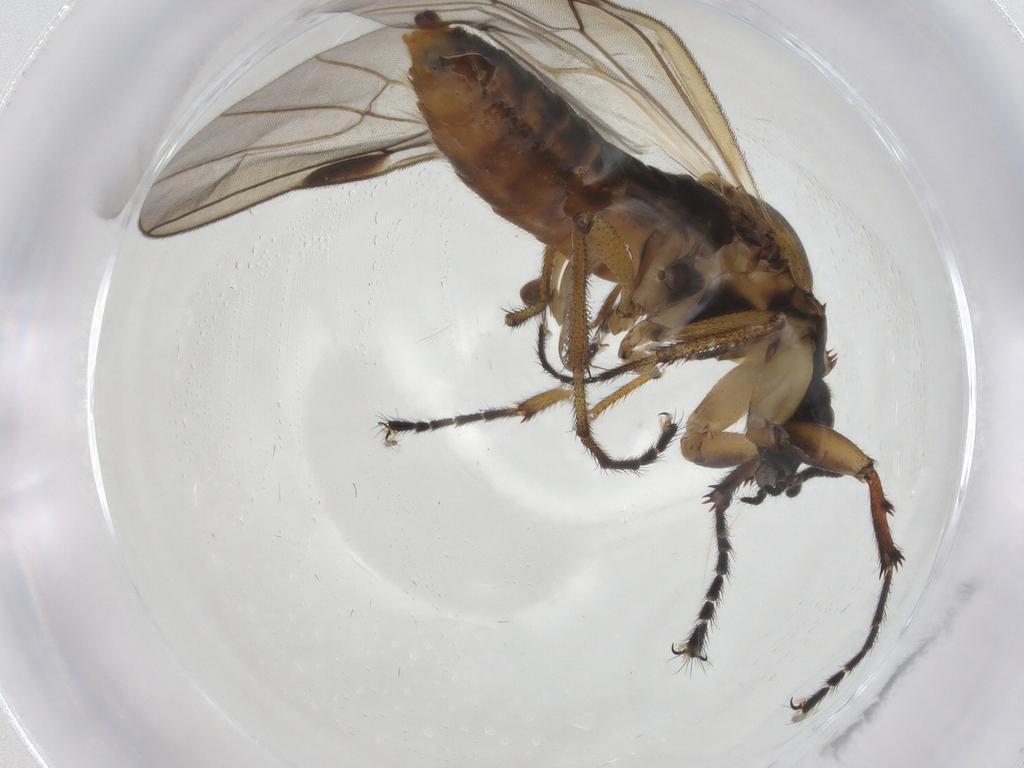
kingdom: Animalia
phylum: Arthropoda
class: Insecta
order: Diptera
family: Bibionidae
